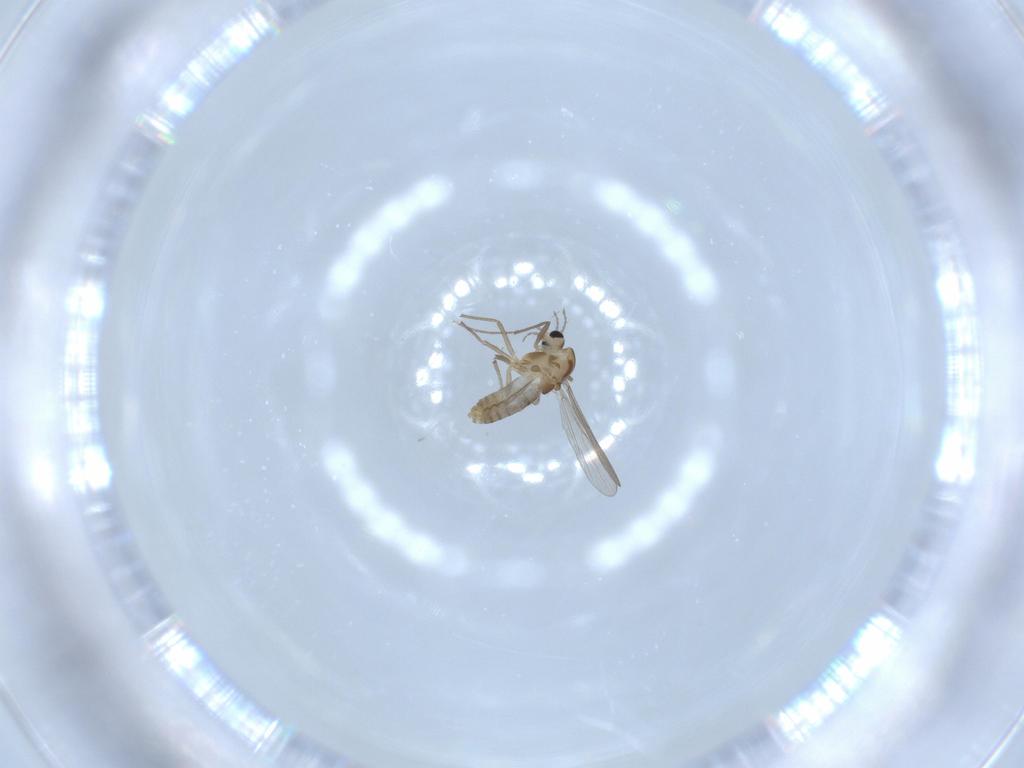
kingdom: Animalia
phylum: Arthropoda
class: Insecta
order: Diptera
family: Chironomidae
